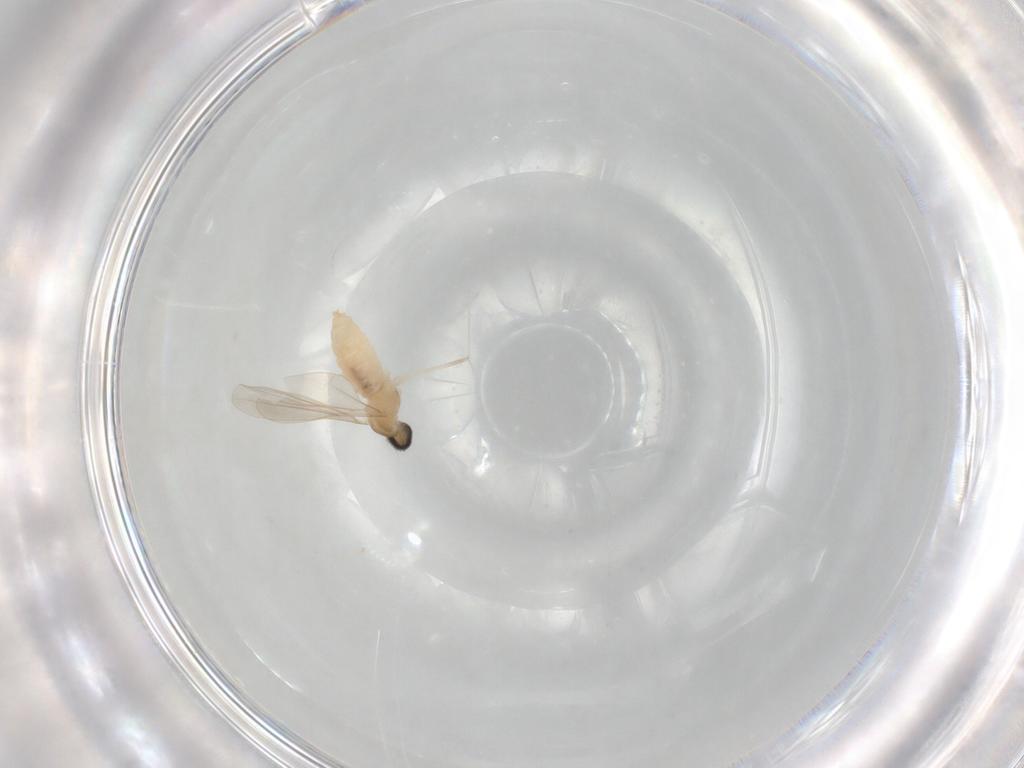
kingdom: Animalia
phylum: Arthropoda
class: Insecta
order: Diptera
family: Cecidomyiidae
